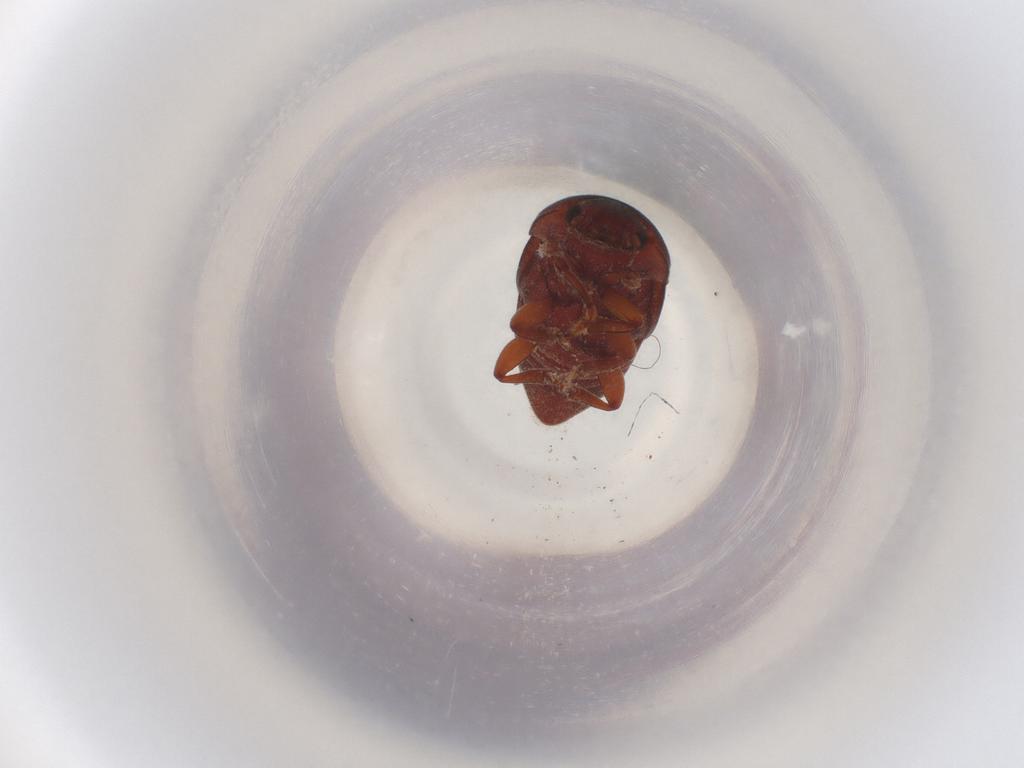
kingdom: Animalia
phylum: Arthropoda
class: Insecta
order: Coleoptera
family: Nitidulidae
